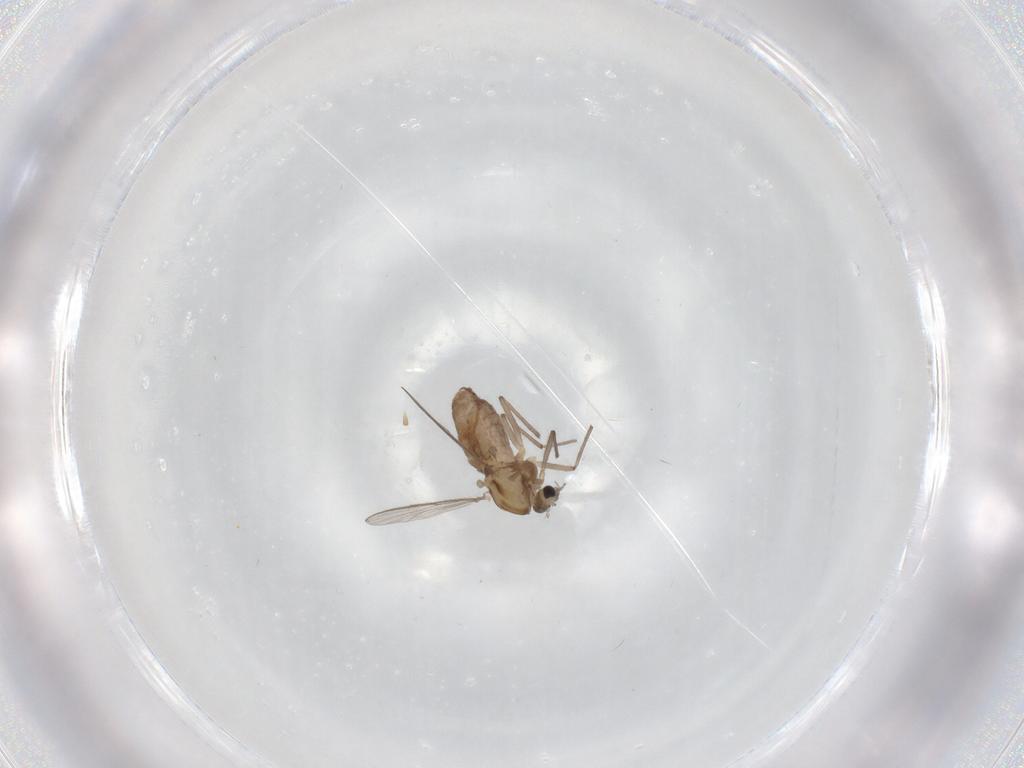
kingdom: Animalia
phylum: Arthropoda
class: Insecta
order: Diptera
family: Chironomidae
